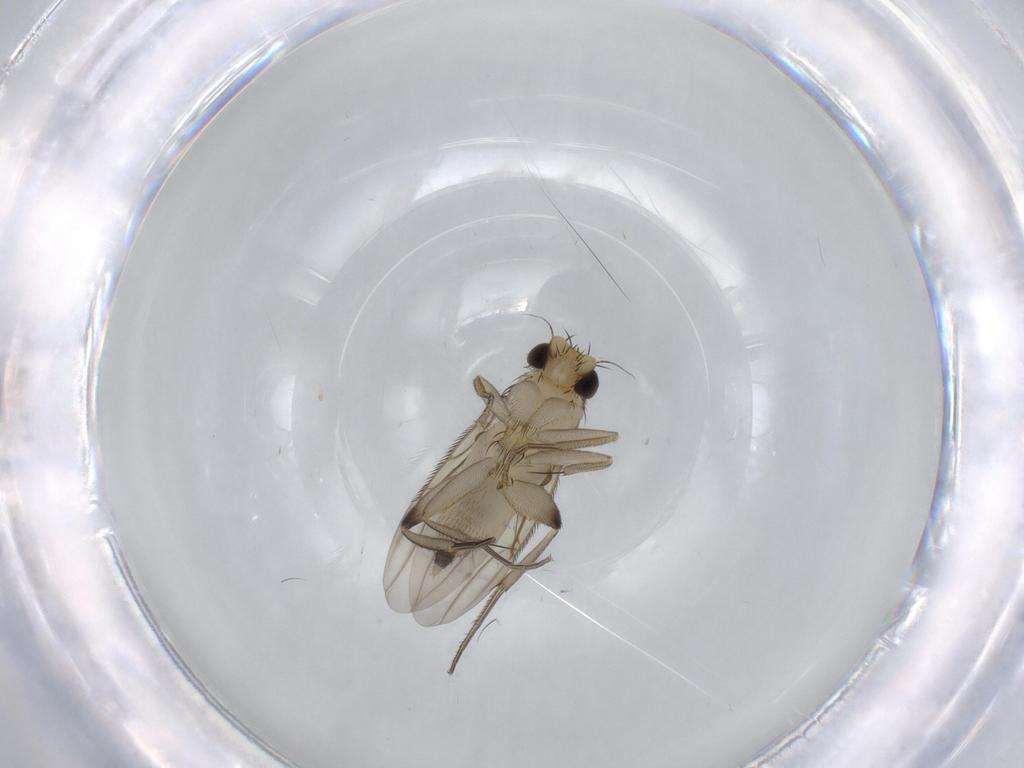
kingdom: Animalia
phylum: Arthropoda
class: Insecta
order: Diptera
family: Phoridae
